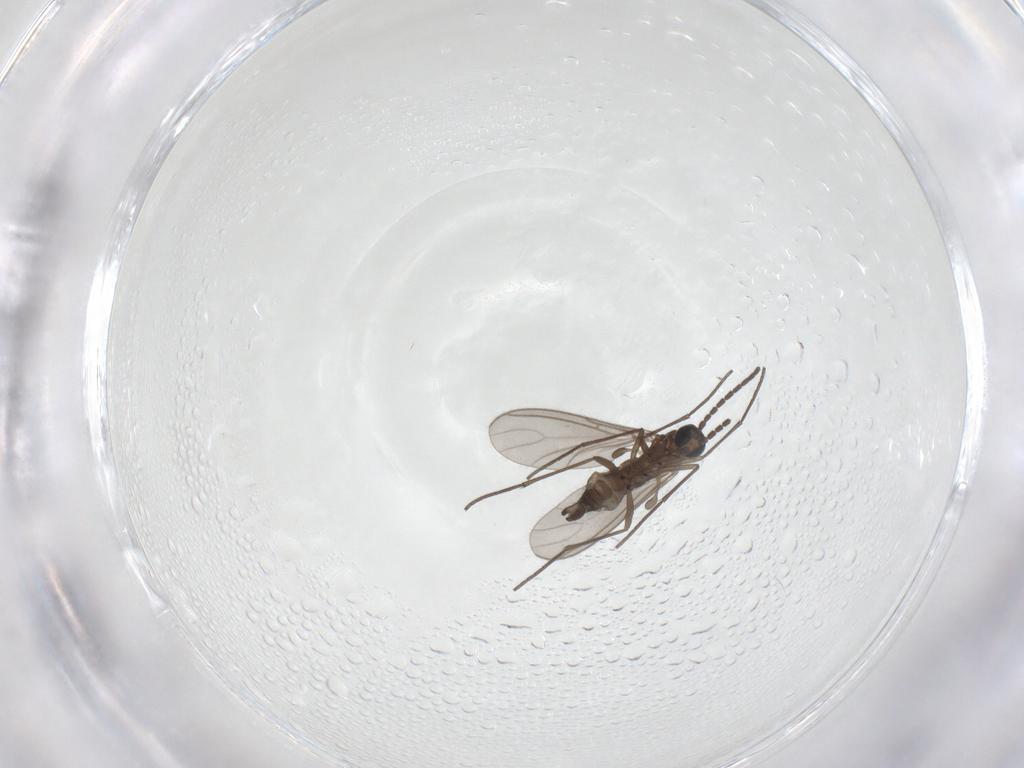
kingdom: Animalia
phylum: Arthropoda
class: Insecta
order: Diptera
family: Sciaridae
